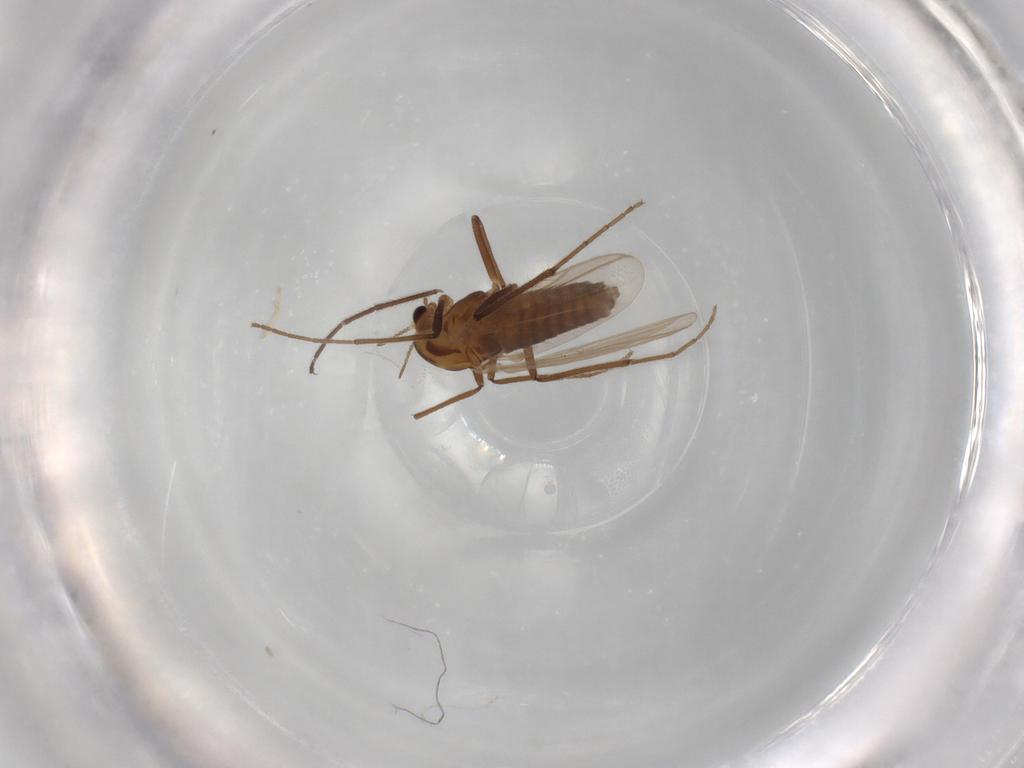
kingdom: Animalia
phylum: Arthropoda
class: Insecta
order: Diptera
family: Chironomidae
